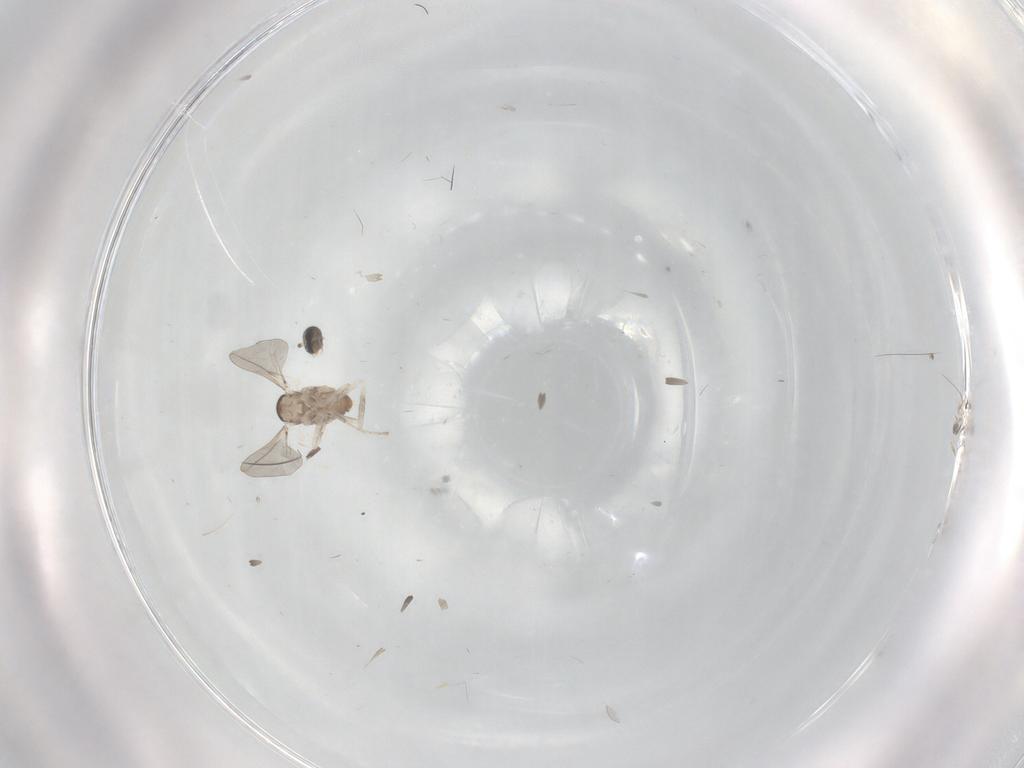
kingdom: Animalia
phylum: Arthropoda
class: Insecta
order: Diptera
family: Cecidomyiidae
